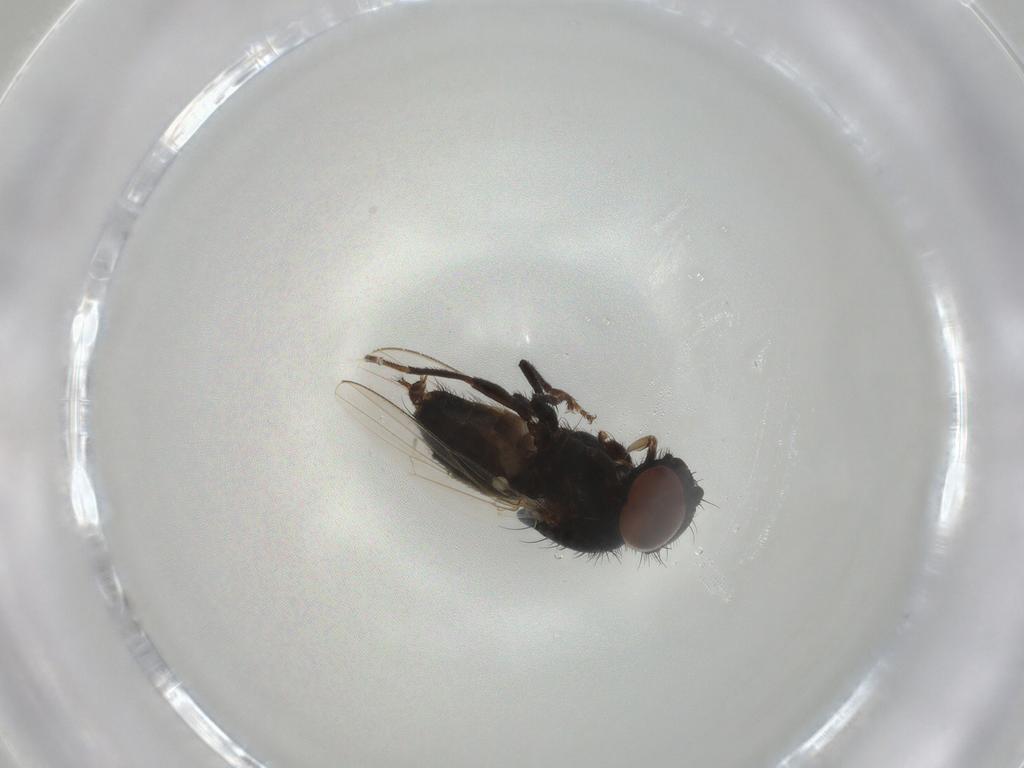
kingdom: Animalia
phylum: Arthropoda
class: Insecta
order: Diptera
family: Milichiidae
